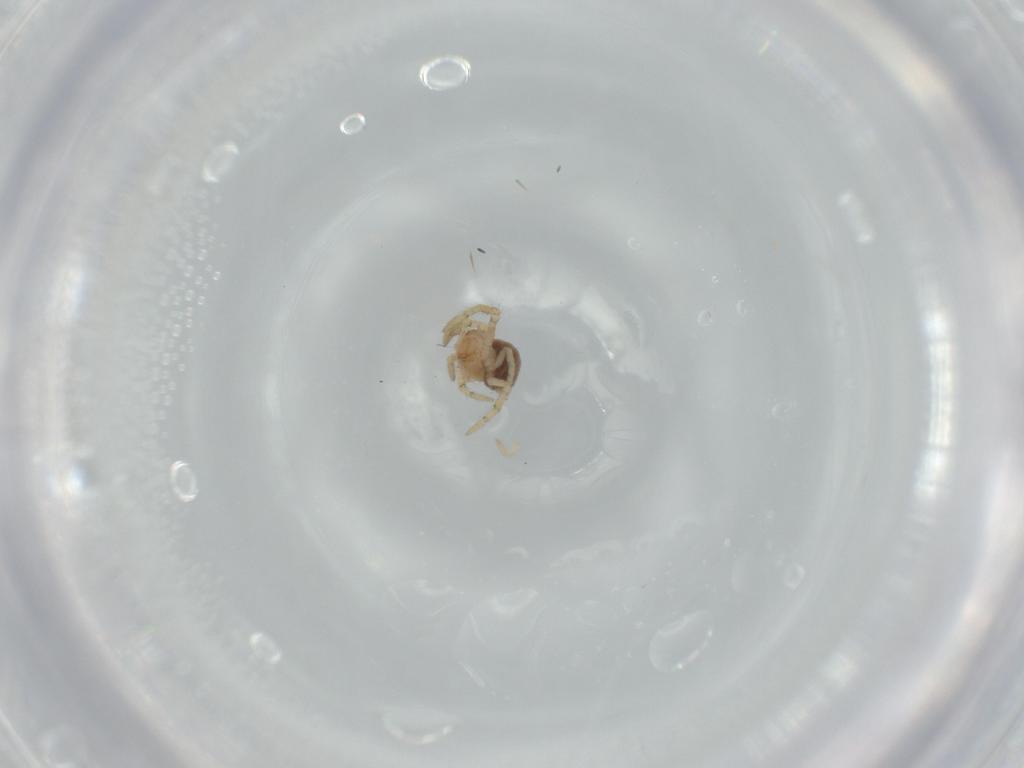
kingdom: Animalia
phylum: Arthropoda
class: Arachnida
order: Araneae
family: Theridiidae
